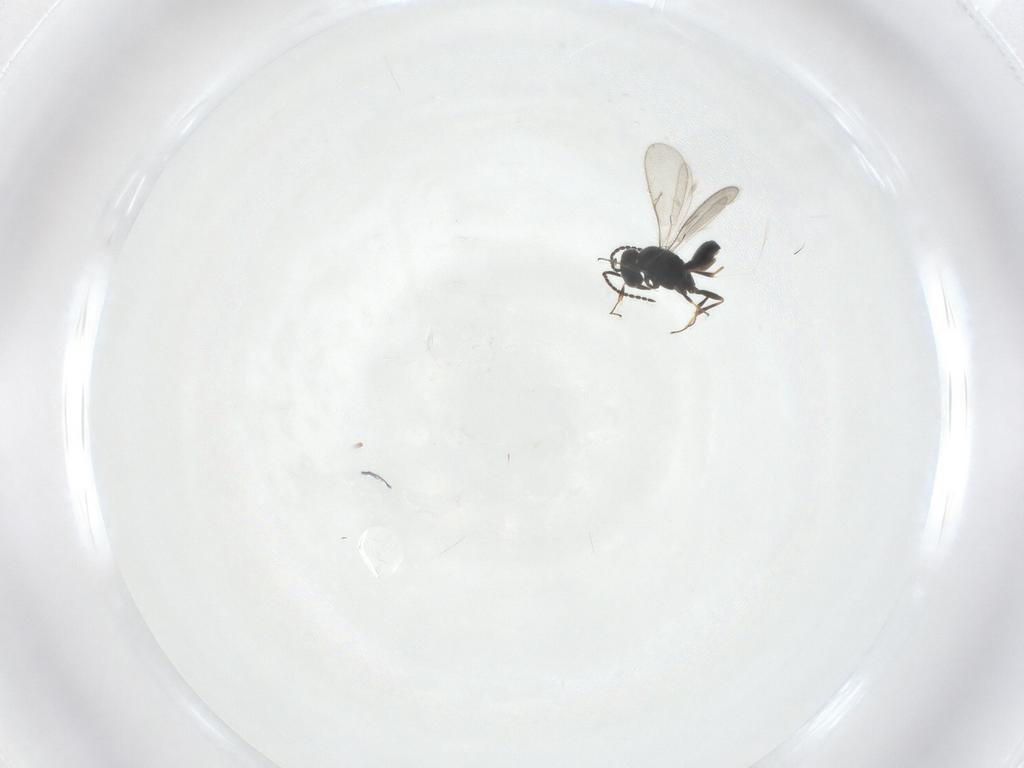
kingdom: Animalia
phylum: Arthropoda
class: Insecta
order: Hymenoptera
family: Scelionidae
